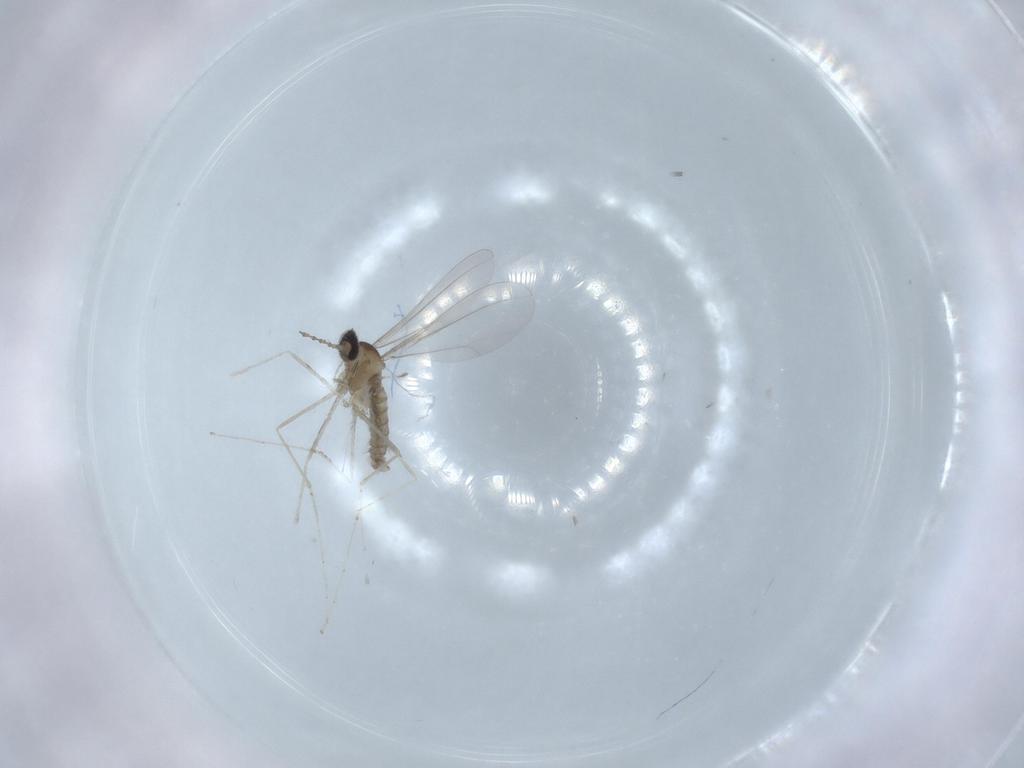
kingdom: Animalia
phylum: Arthropoda
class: Insecta
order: Diptera
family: Cecidomyiidae
